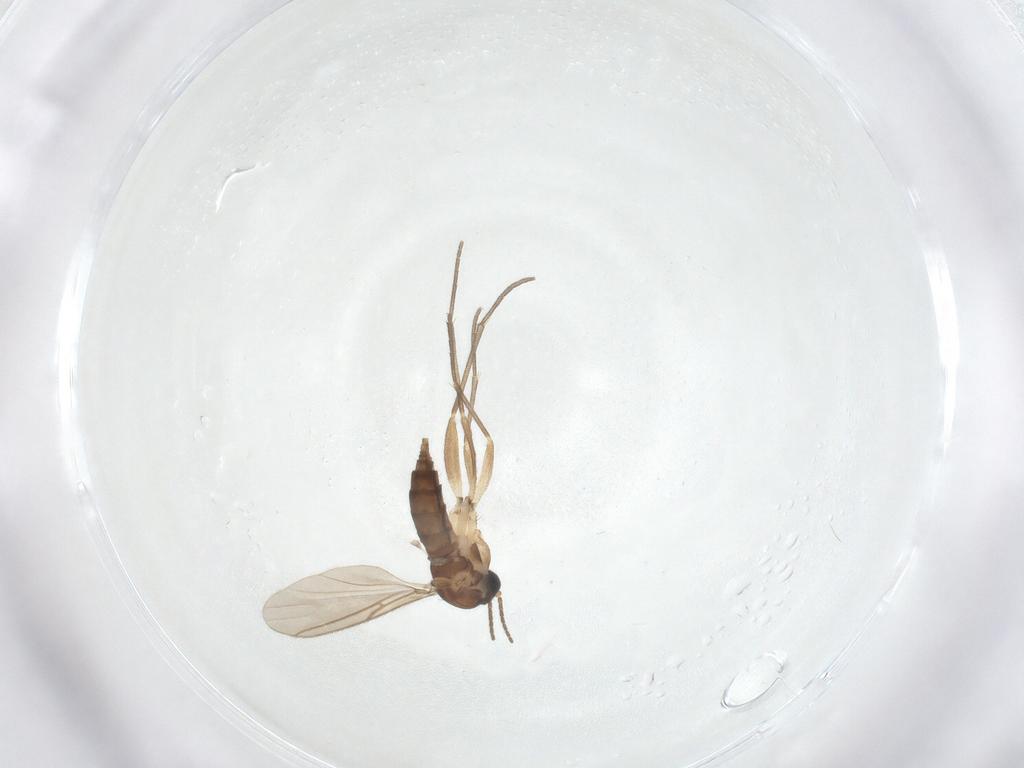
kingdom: Animalia
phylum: Arthropoda
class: Insecta
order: Diptera
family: Sciaridae
